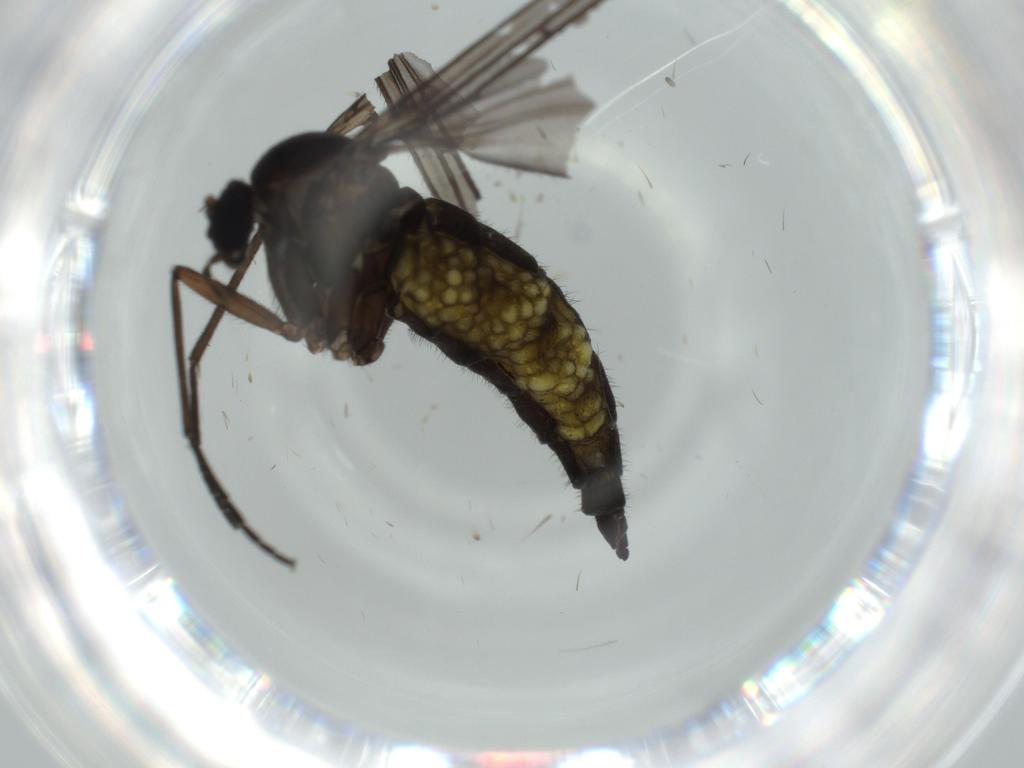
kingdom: Animalia
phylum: Arthropoda
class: Insecta
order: Diptera
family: Sciaridae
